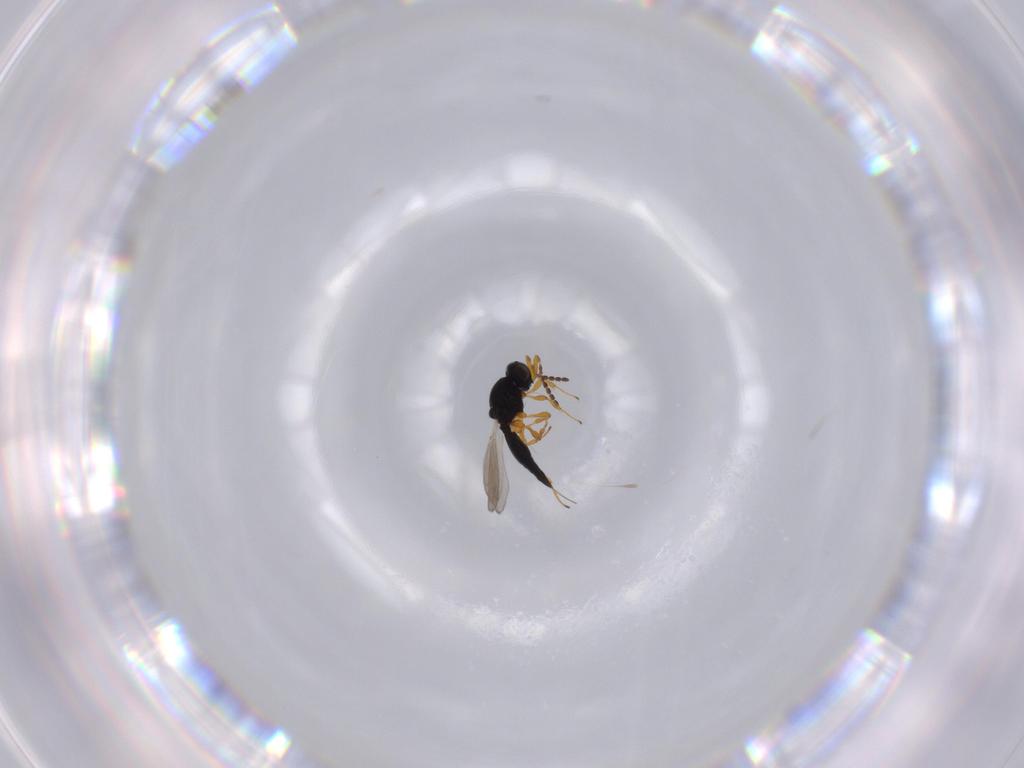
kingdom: Animalia
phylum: Arthropoda
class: Insecta
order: Hymenoptera
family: Platygastridae
